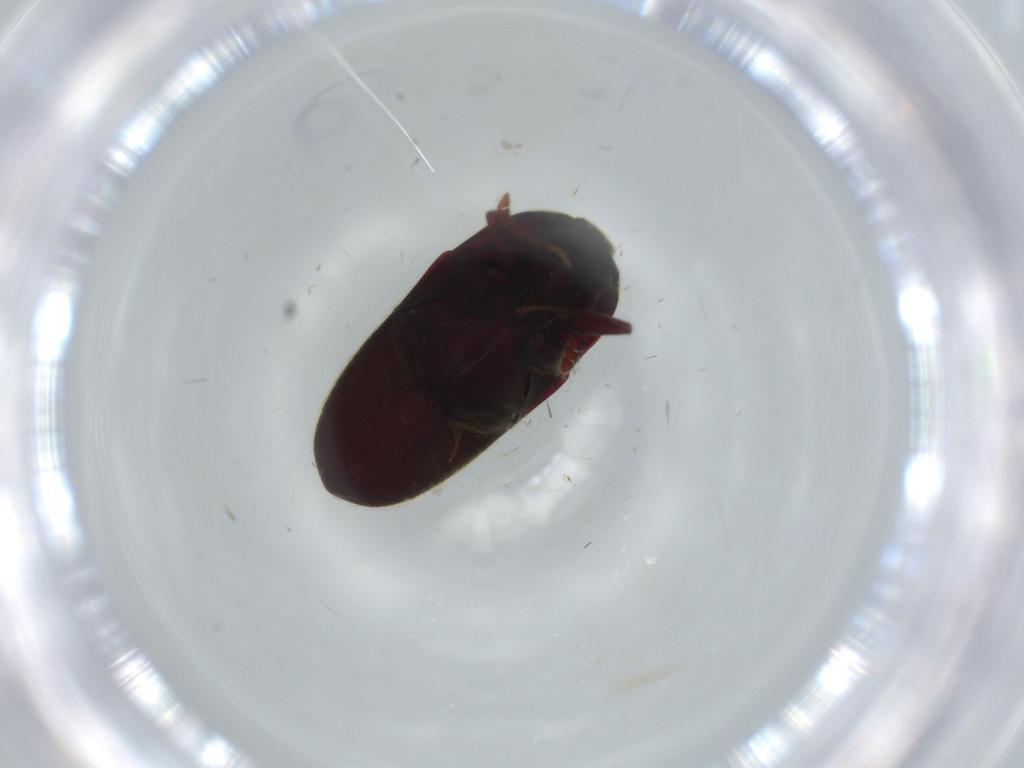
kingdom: Animalia
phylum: Arthropoda
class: Insecta
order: Coleoptera
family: Throscidae
